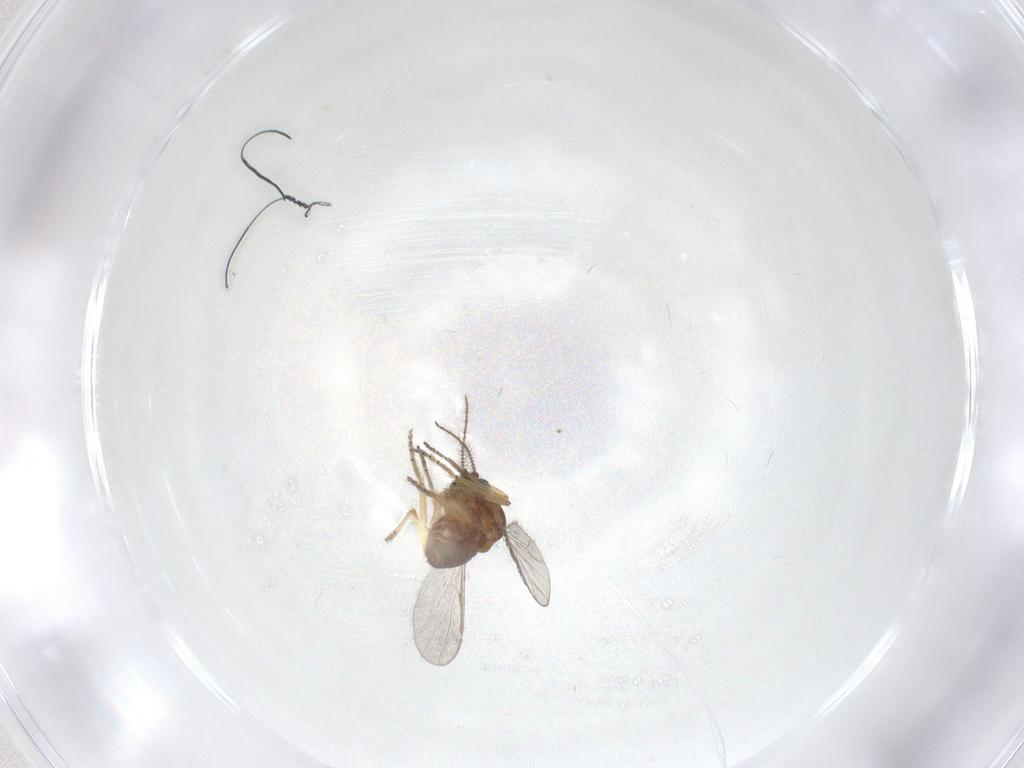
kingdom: Animalia
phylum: Arthropoda
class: Insecta
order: Diptera
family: Ceratopogonidae
